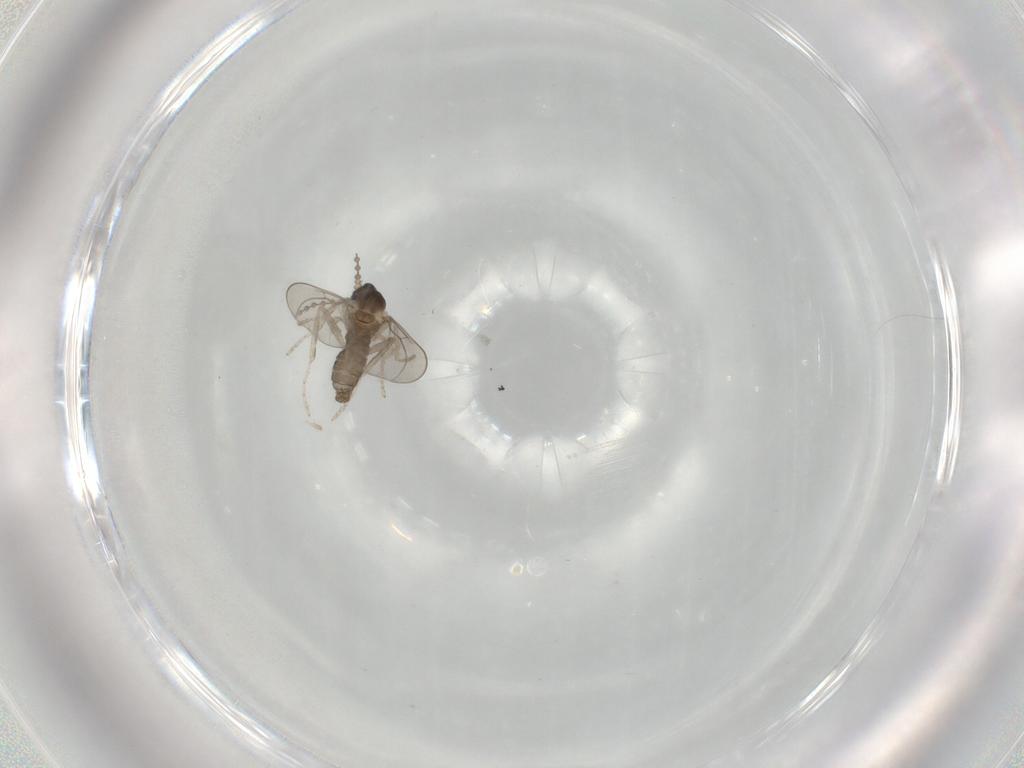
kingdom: Animalia
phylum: Arthropoda
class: Insecta
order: Diptera
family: Cecidomyiidae
